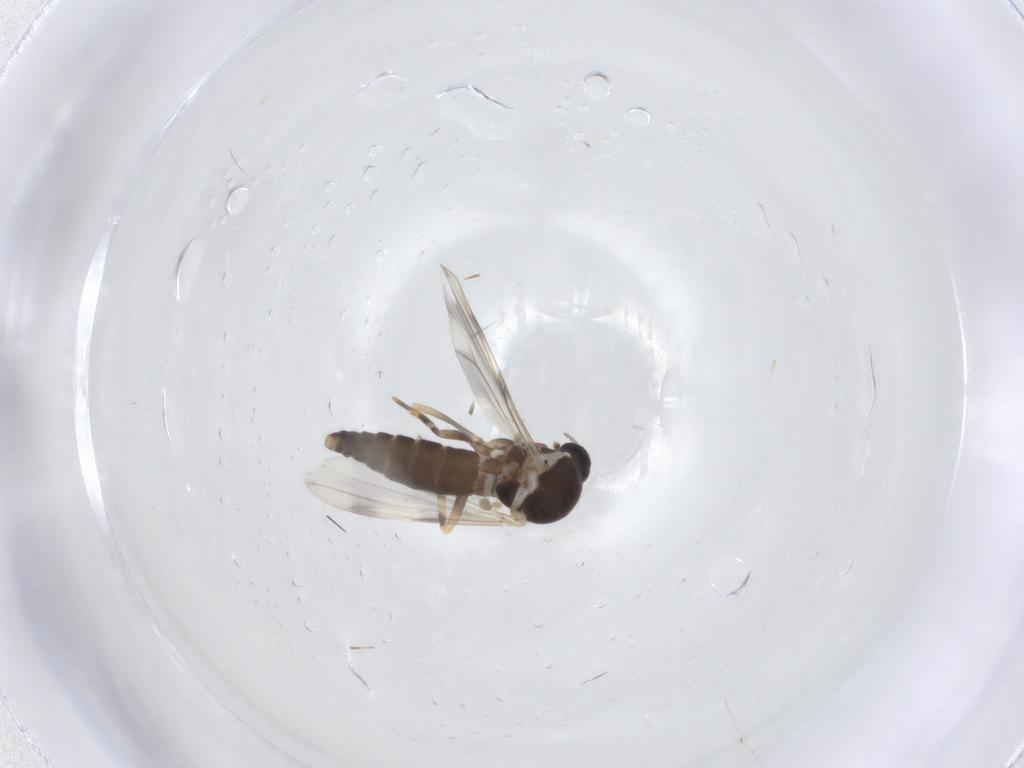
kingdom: Animalia
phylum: Arthropoda
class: Insecta
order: Diptera
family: Ceratopogonidae
